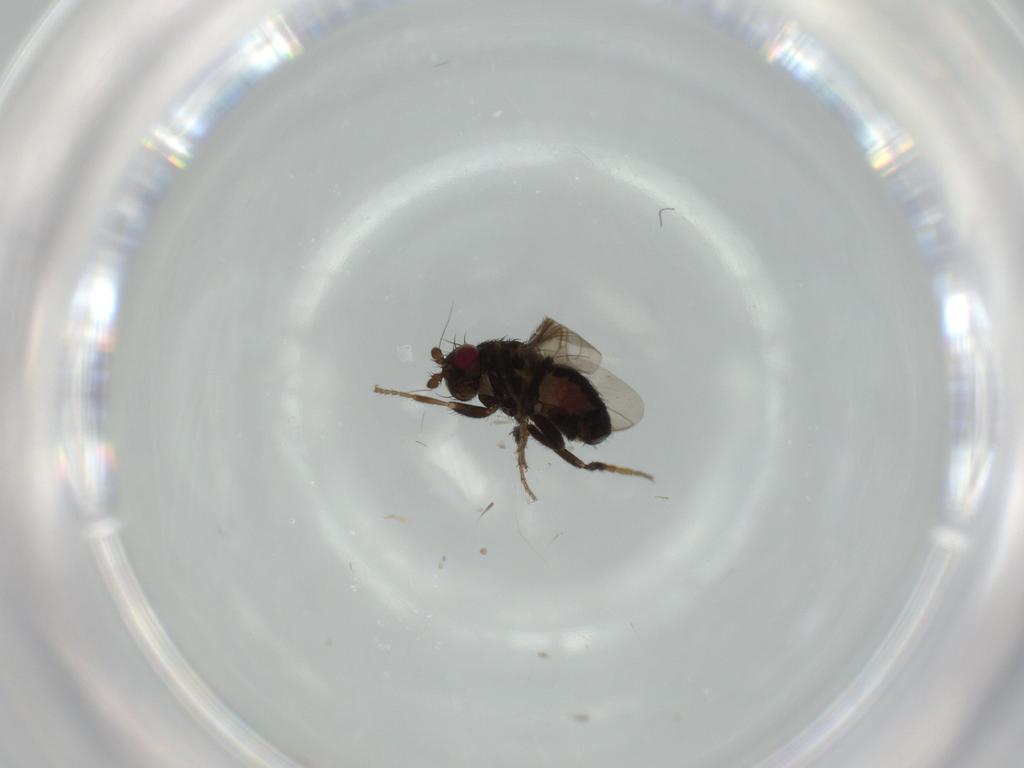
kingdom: Animalia
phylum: Arthropoda
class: Insecta
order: Diptera
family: Sphaeroceridae
